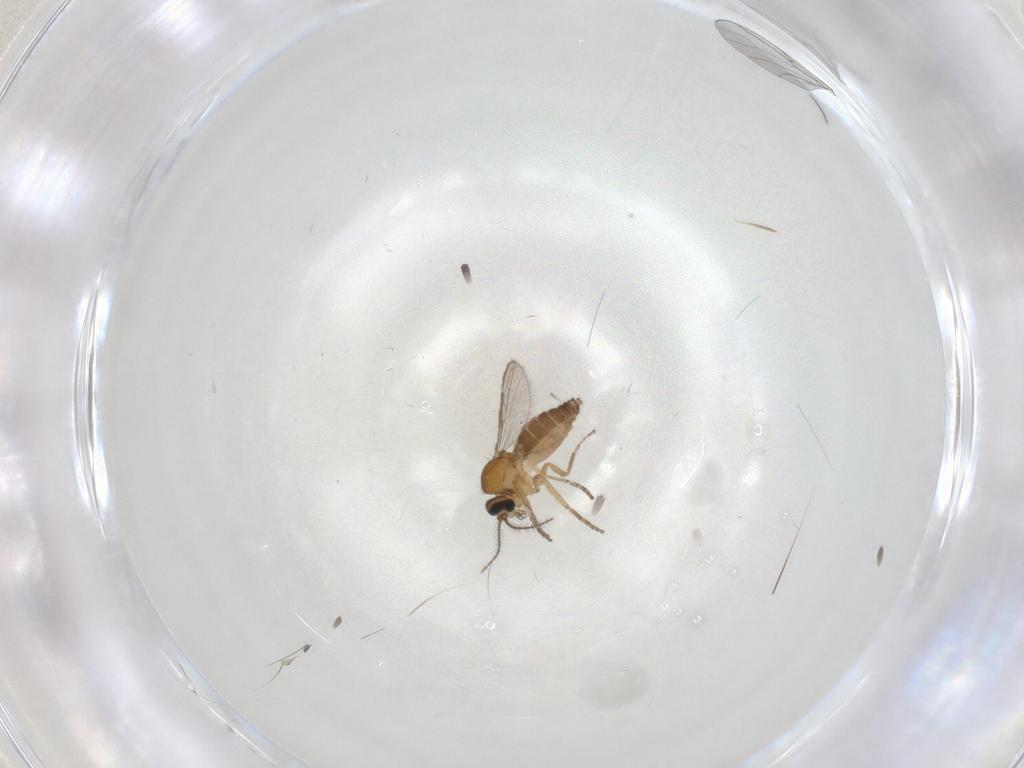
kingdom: Animalia
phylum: Arthropoda
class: Insecta
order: Diptera
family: Ceratopogonidae
